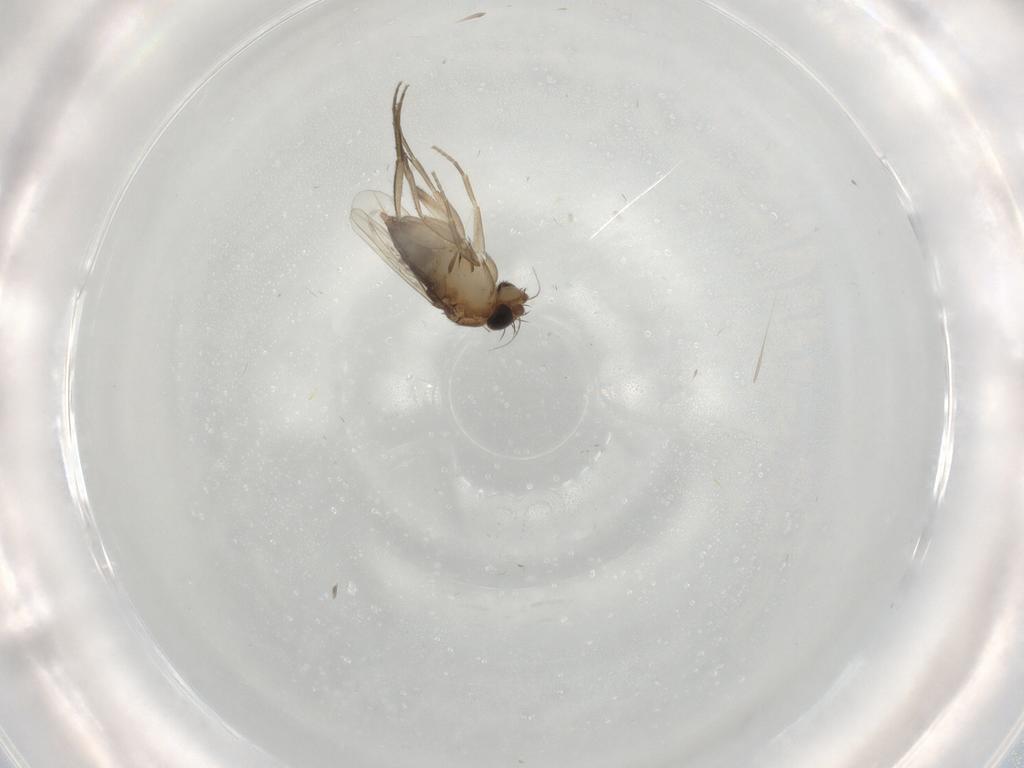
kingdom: Animalia
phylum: Arthropoda
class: Insecta
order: Diptera
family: Phoridae
